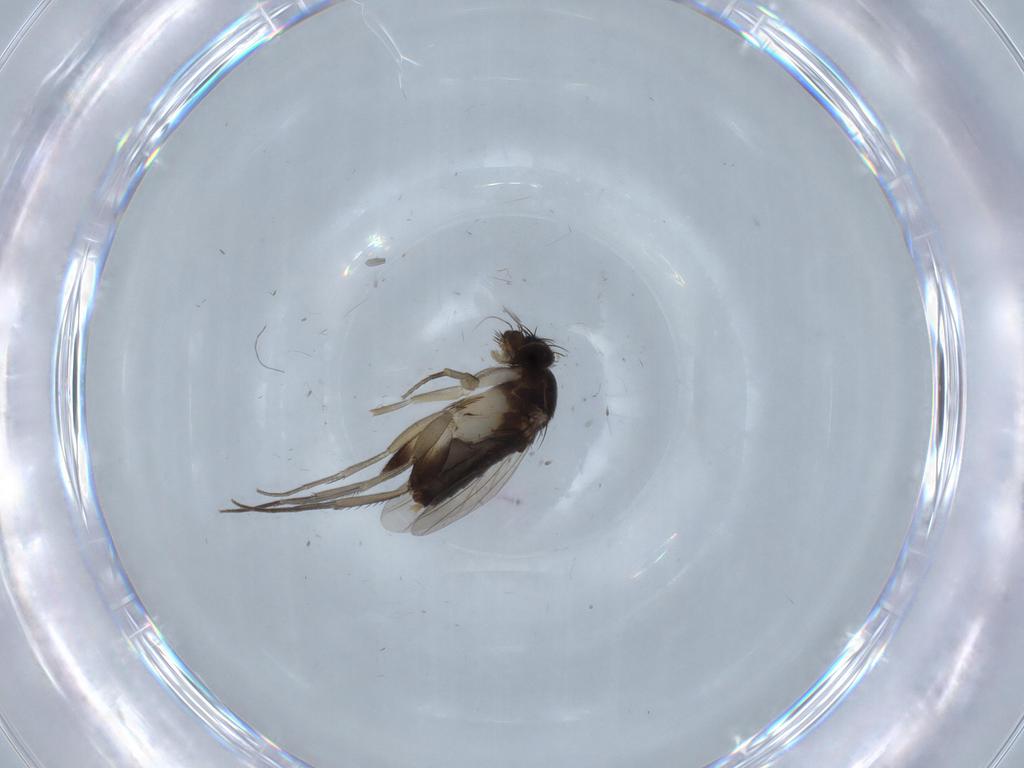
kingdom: Animalia
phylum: Arthropoda
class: Insecta
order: Diptera
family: Phoridae
